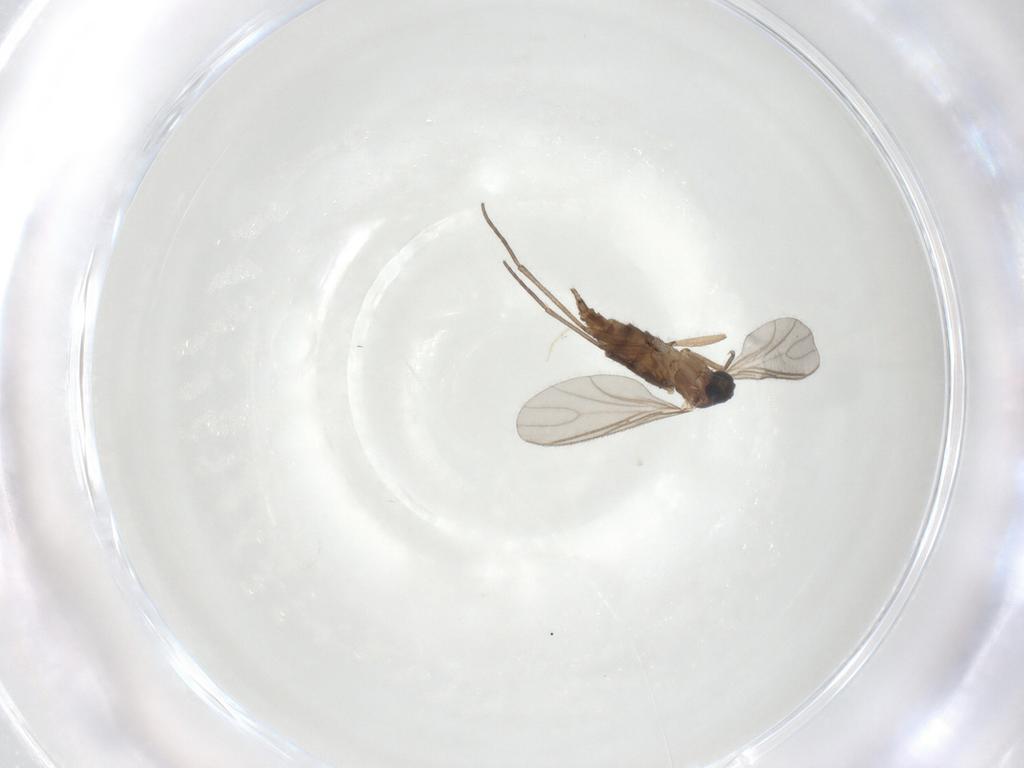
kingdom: Animalia
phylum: Arthropoda
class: Insecta
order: Diptera
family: Sciaridae
